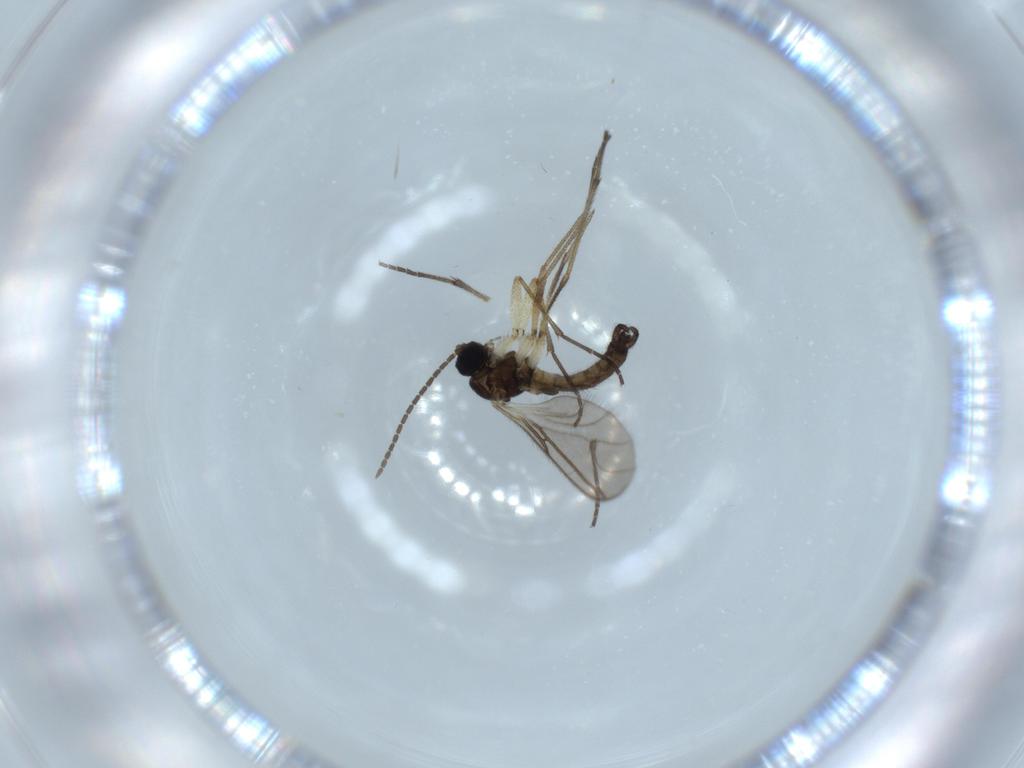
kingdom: Animalia
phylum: Arthropoda
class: Insecta
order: Diptera
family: Sciaridae
